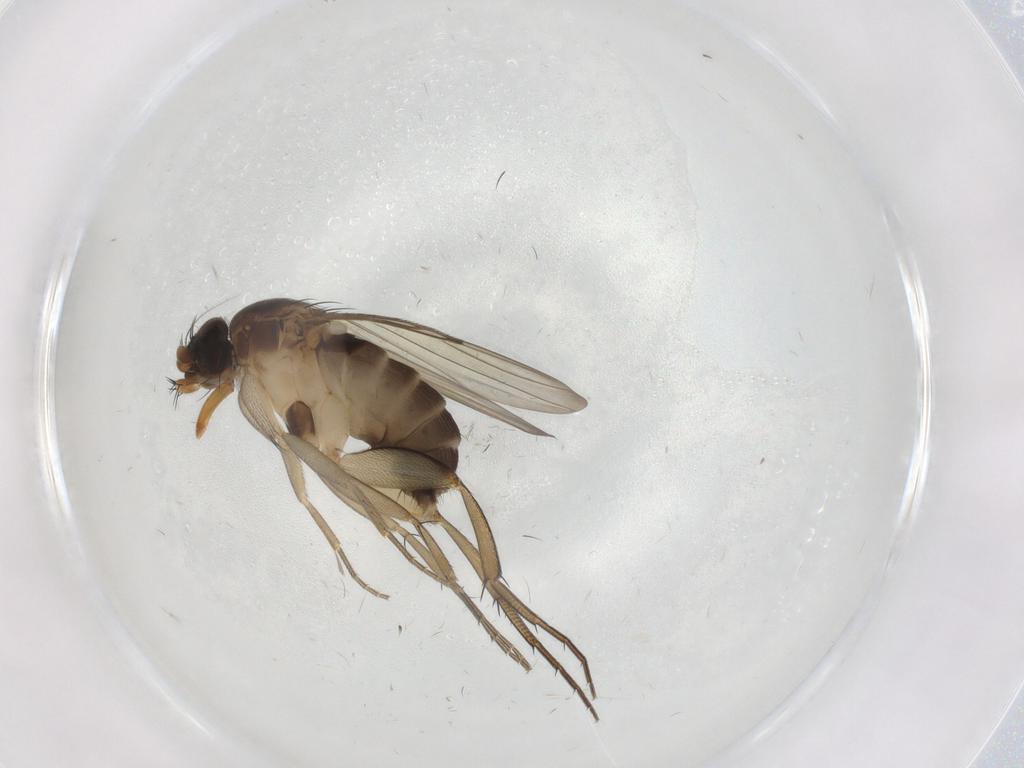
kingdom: Animalia
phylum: Arthropoda
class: Insecta
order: Diptera
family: Phoridae
